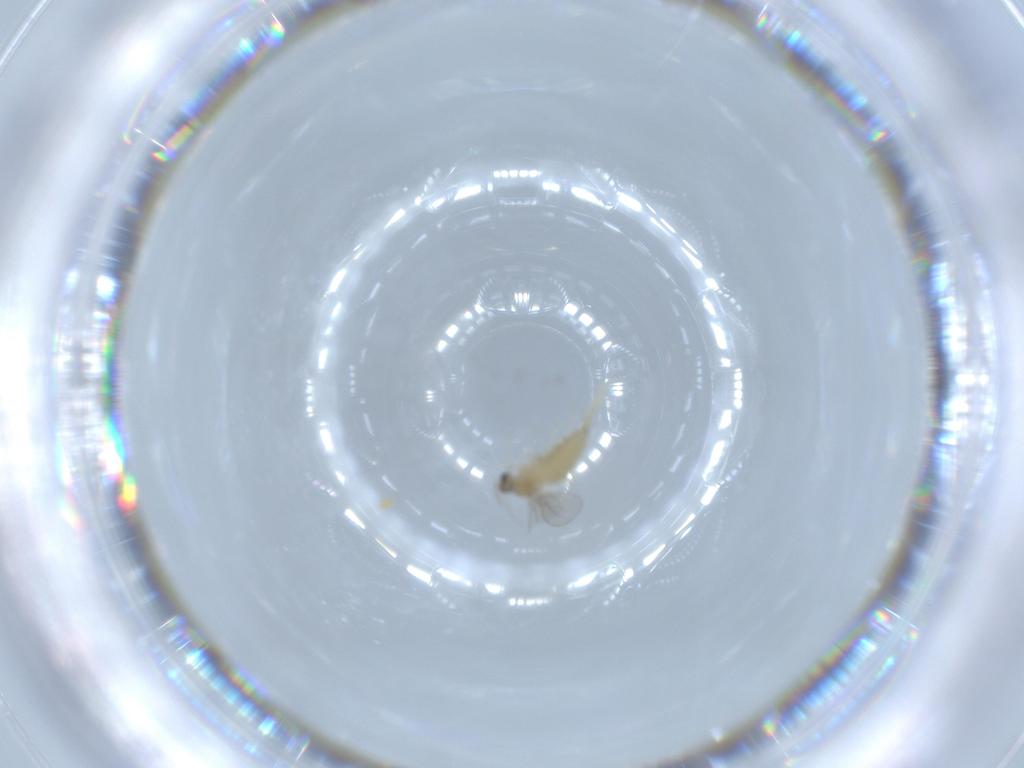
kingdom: Animalia
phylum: Arthropoda
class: Insecta
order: Diptera
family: Cecidomyiidae
